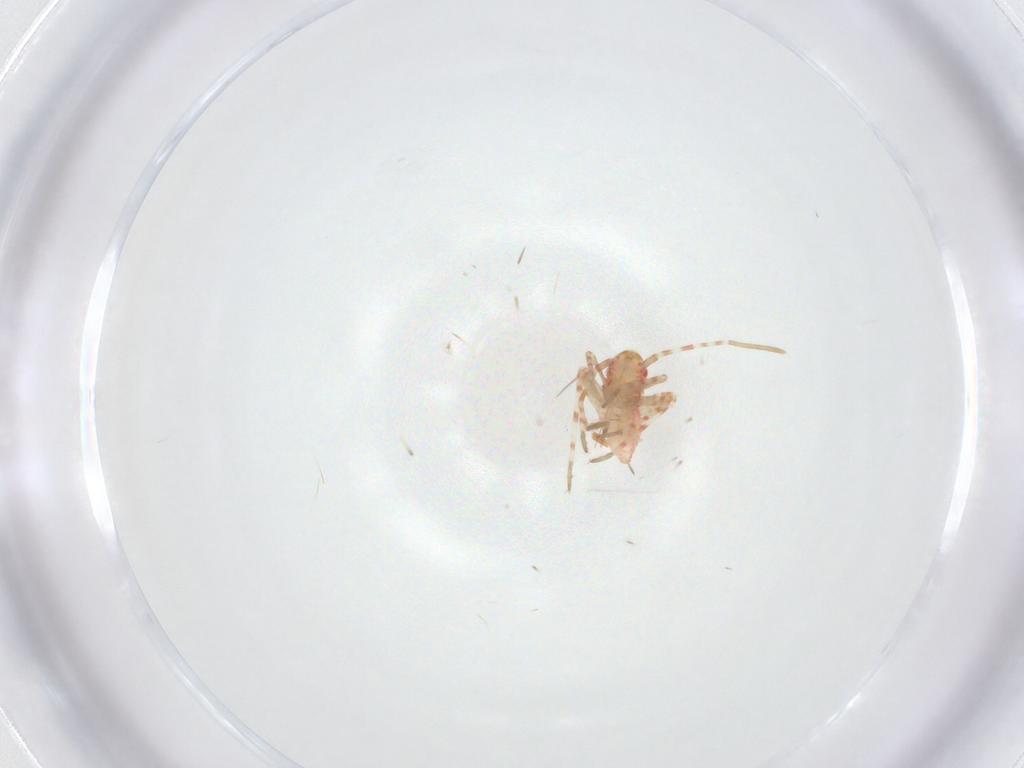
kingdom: Animalia
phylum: Arthropoda
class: Insecta
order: Hemiptera
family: Miridae
